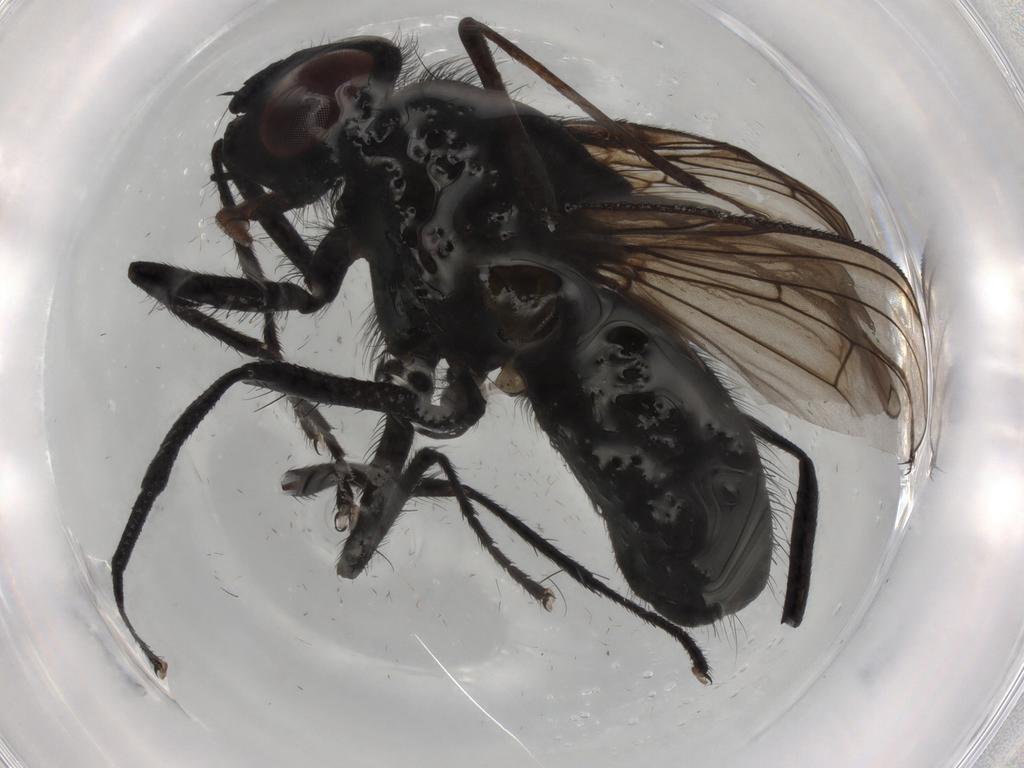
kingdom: Animalia
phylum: Arthropoda
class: Insecta
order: Diptera
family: Muscidae
